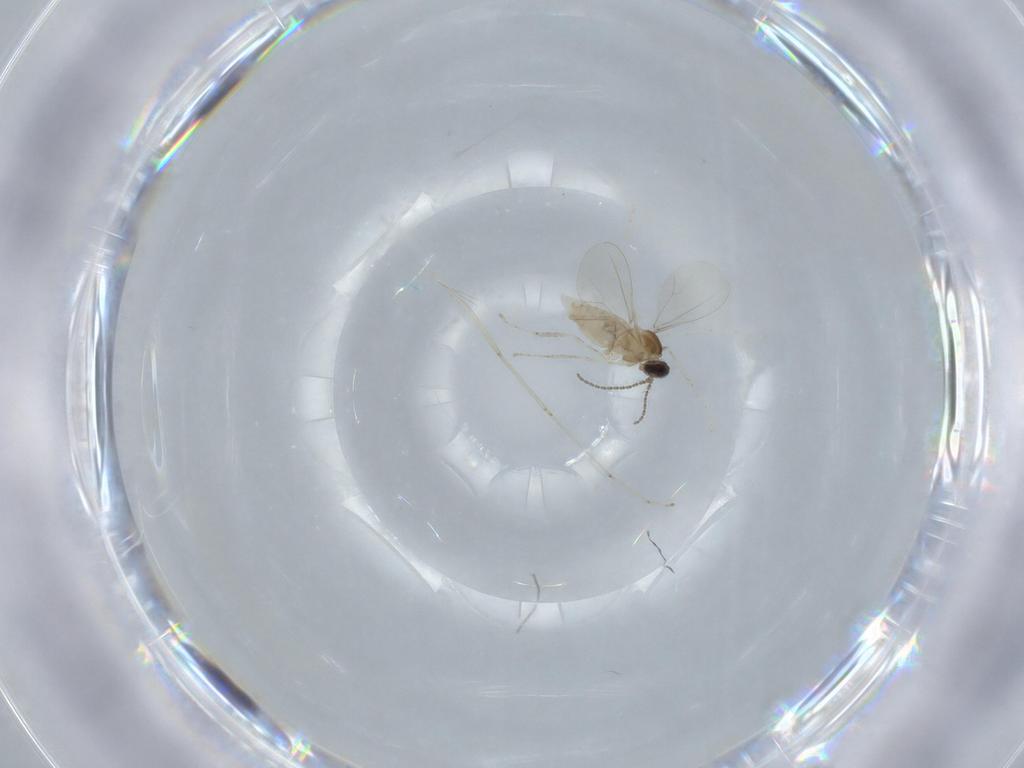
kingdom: Animalia
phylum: Arthropoda
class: Insecta
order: Diptera
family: Cecidomyiidae
